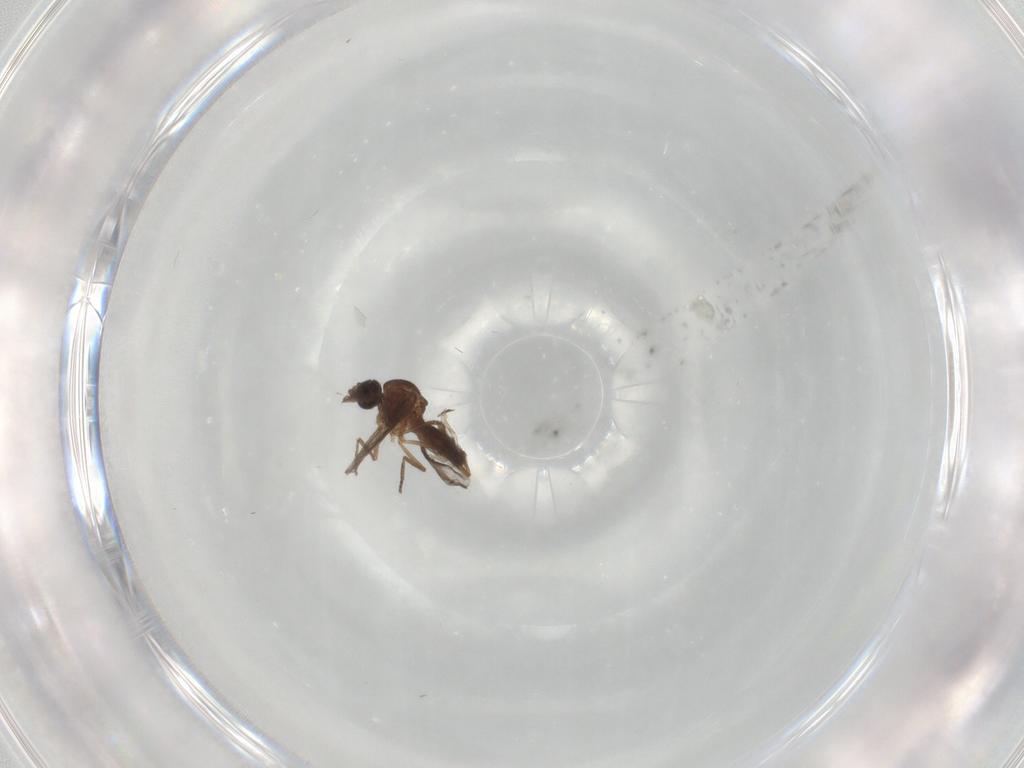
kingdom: Animalia
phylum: Arthropoda
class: Insecta
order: Diptera
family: Ceratopogonidae
